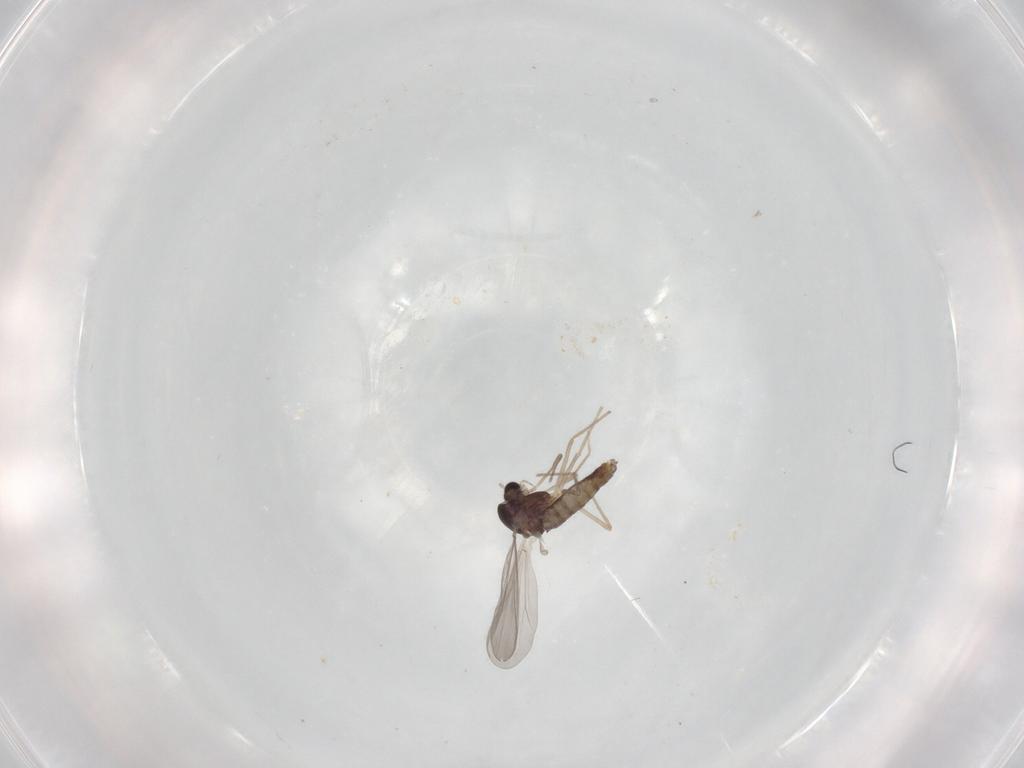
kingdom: Animalia
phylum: Arthropoda
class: Insecta
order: Diptera
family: Chironomidae
